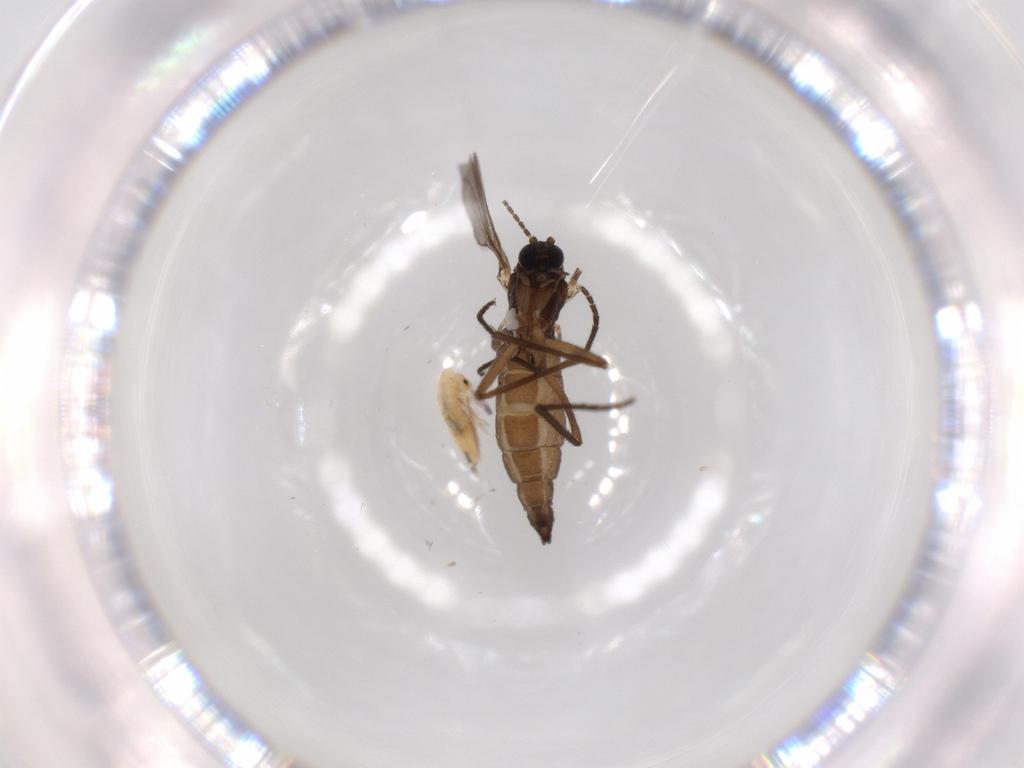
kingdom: Animalia
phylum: Arthropoda
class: Insecta
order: Diptera
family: Sciaridae
